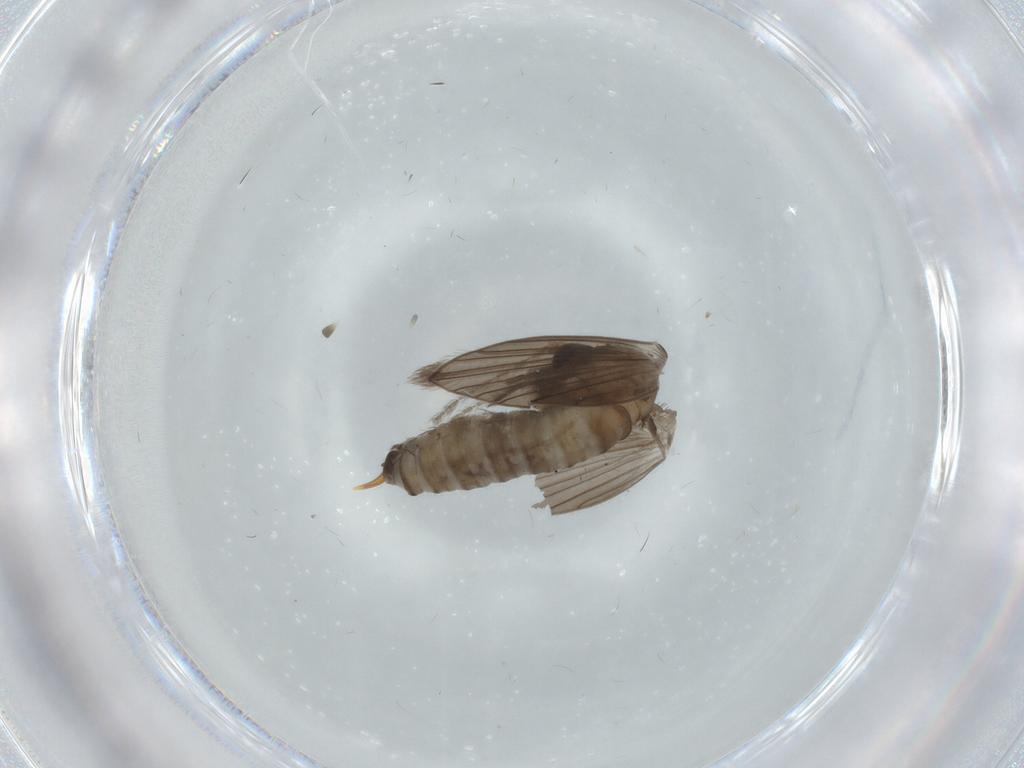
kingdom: Animalia
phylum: Arthropoda
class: Insecta
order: Diptera
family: Psychodidae
